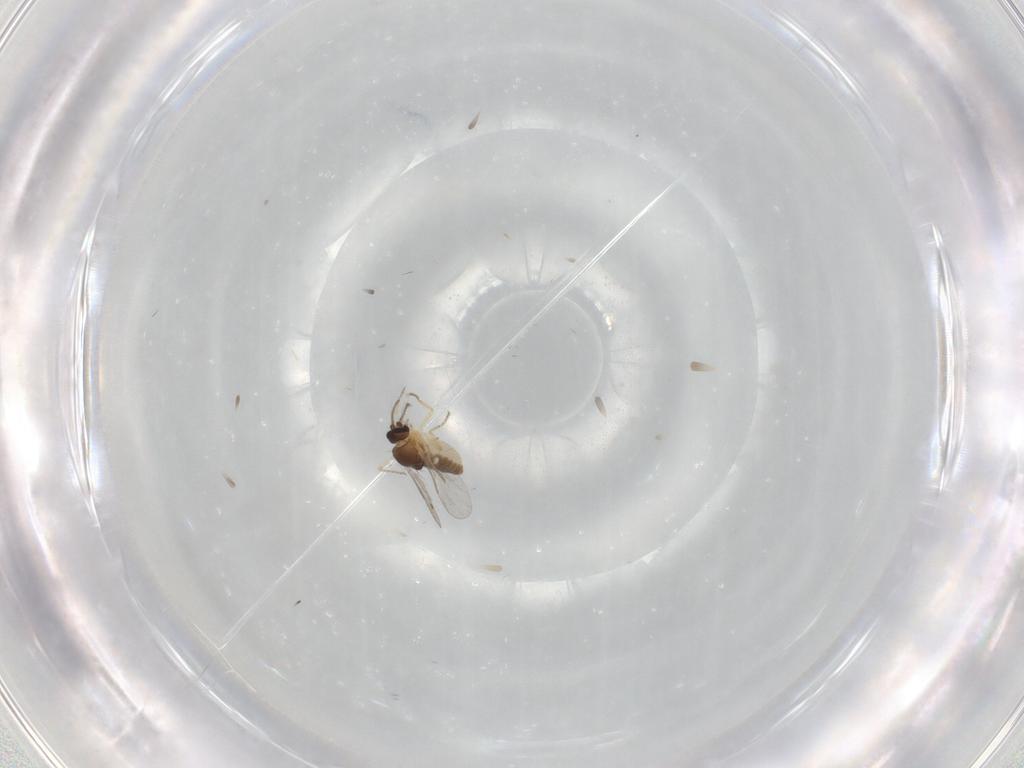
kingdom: Animalia
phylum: Arthropoda
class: Insecta
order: Diptera
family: Ceratopogonidae
